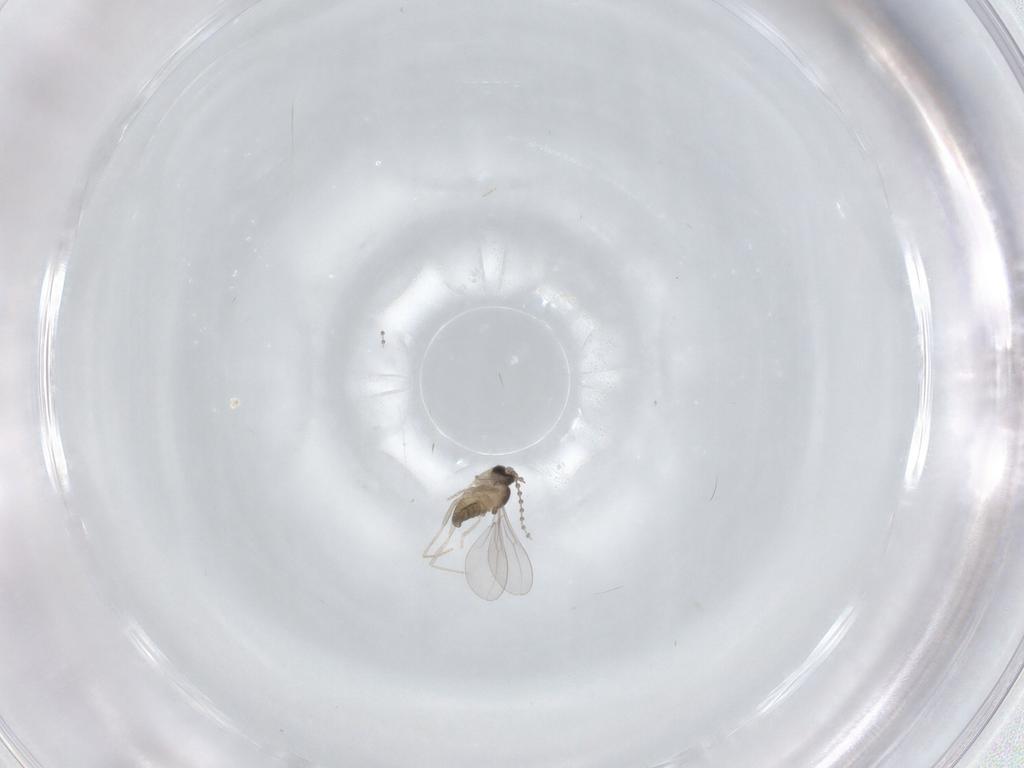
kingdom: Animalia
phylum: Arthropoda
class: Insecta
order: Diptera
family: Cecidomyiidae
